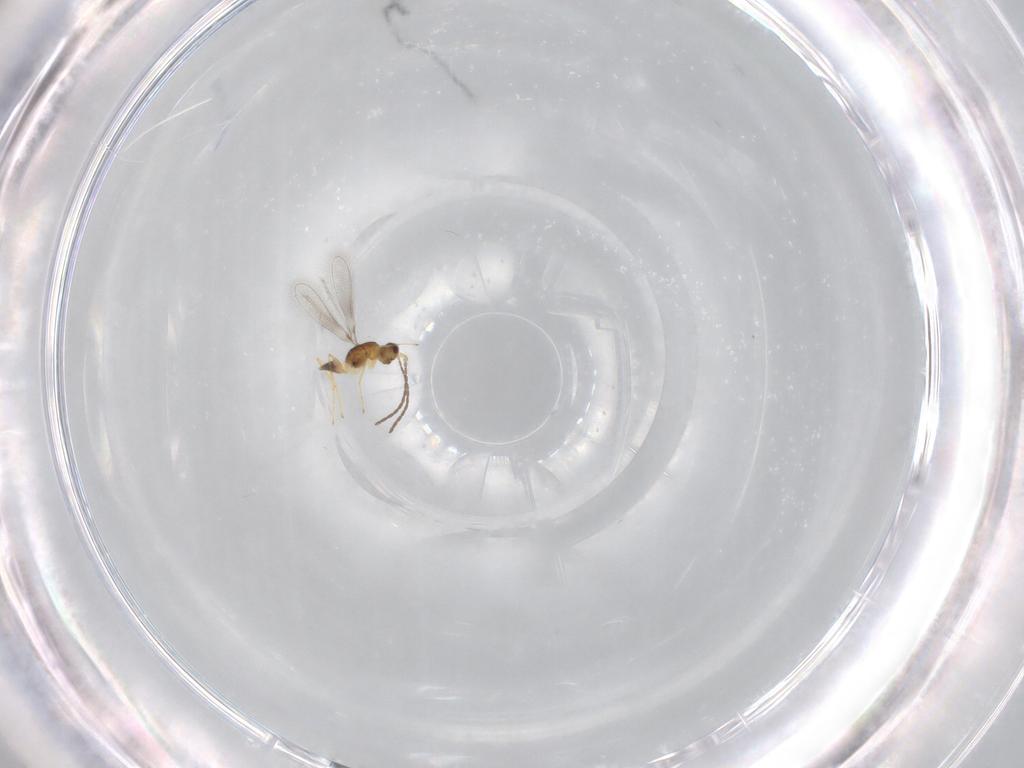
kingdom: Animalia
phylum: Arthropoda
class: Insecta
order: Hymenoptera
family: Mymaridae
